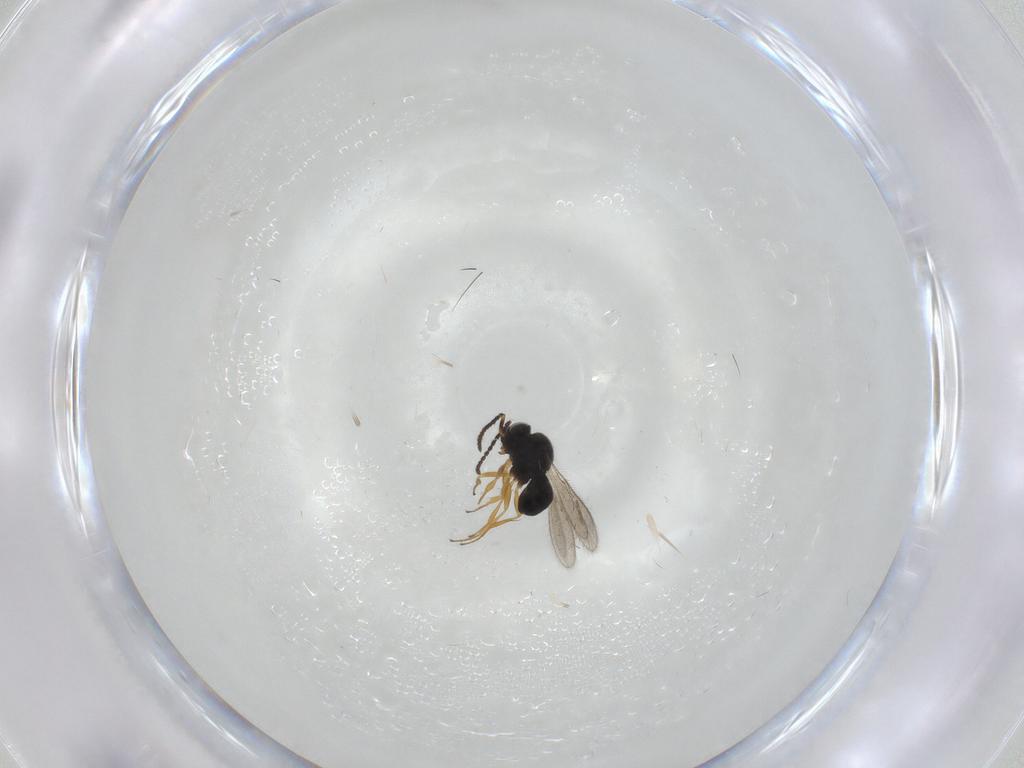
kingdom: Animalia
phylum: Arthropoda
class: Insecta
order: Hymenoptera
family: Scelionidae
